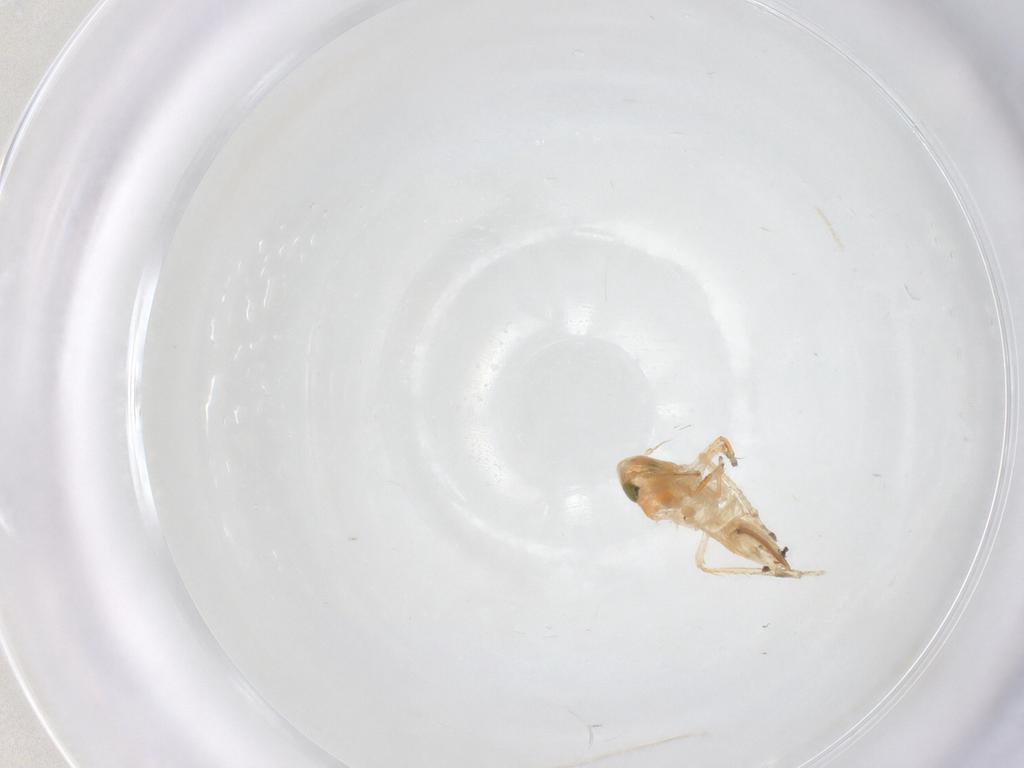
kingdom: Animalia
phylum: Arthropoda
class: Insecta
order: Hemiptera
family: Cicadellidae
